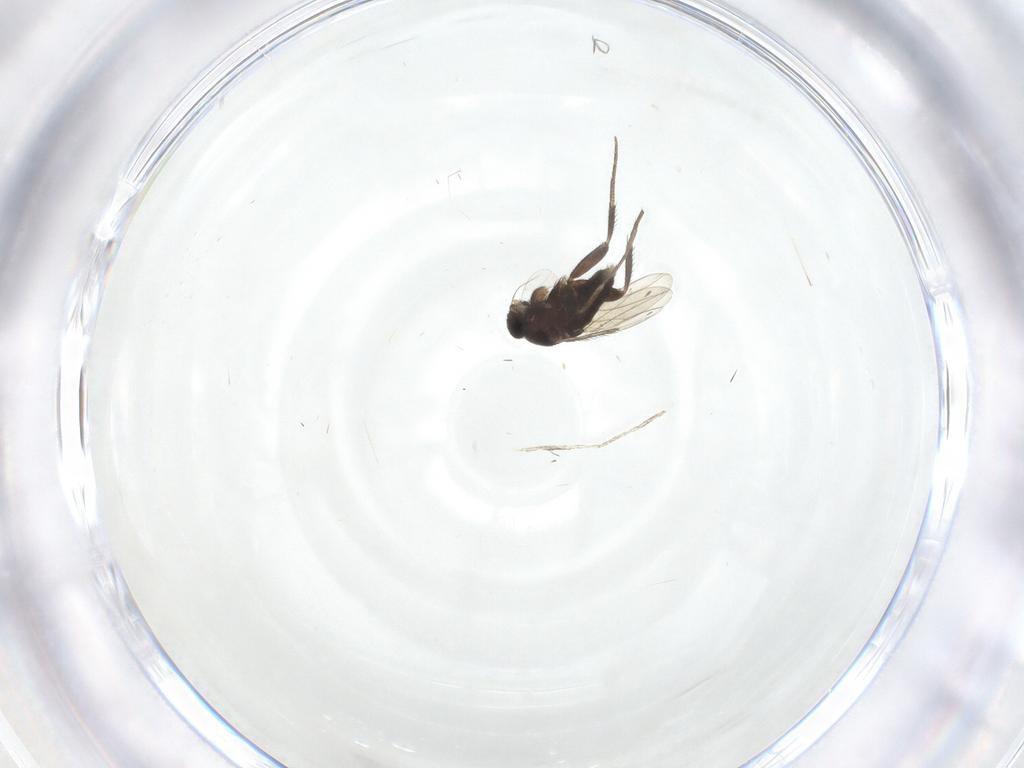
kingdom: Animalia
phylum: Arthropoda
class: Insecta
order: Diptera
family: Cecidomyiidae
